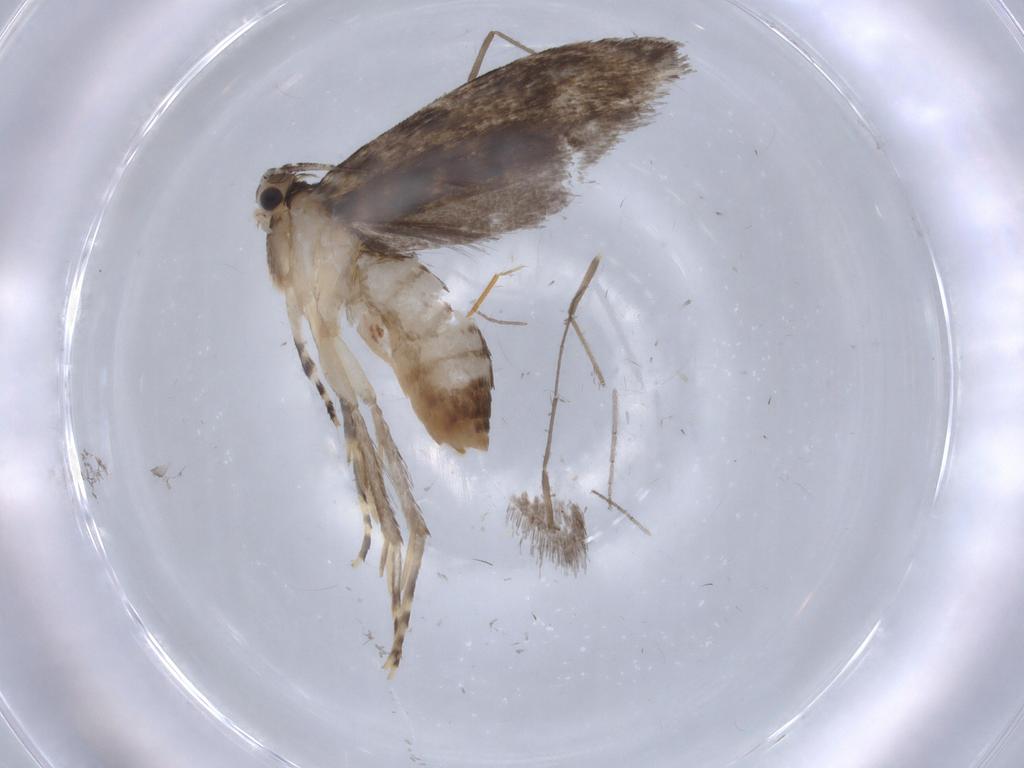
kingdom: Animalia
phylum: Arthropoda
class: Insecta
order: Lepidoptera
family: Tineidae
